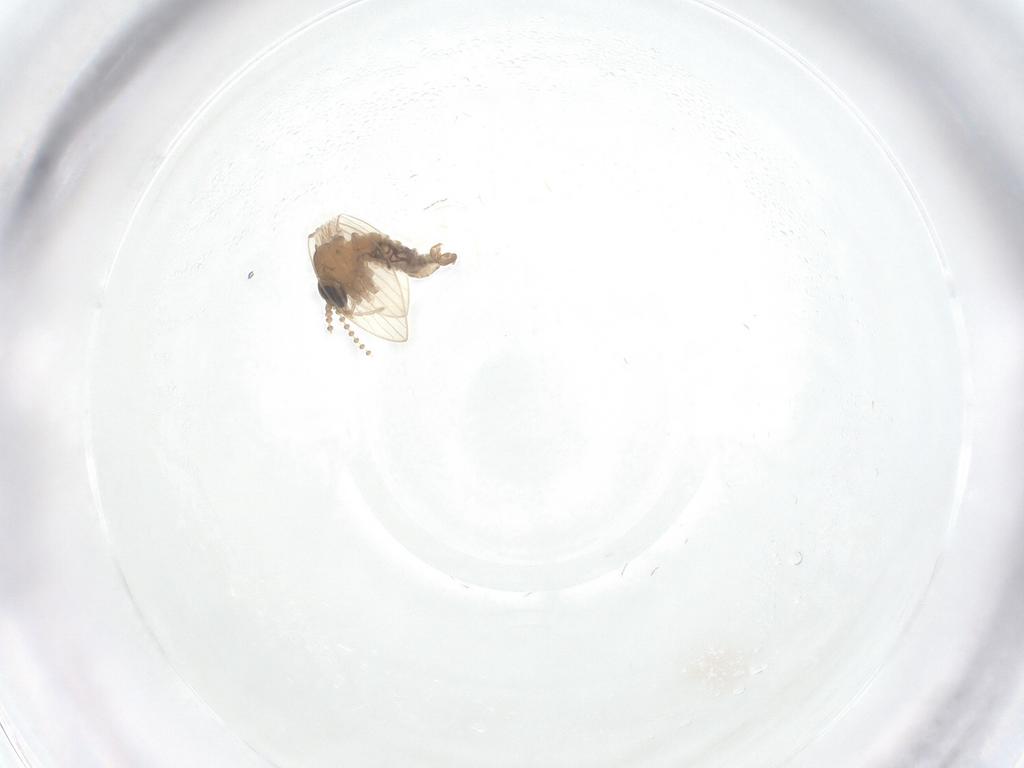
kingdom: Animalia
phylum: Arthropoda
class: Insecta
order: Diptera
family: Psychodidae
